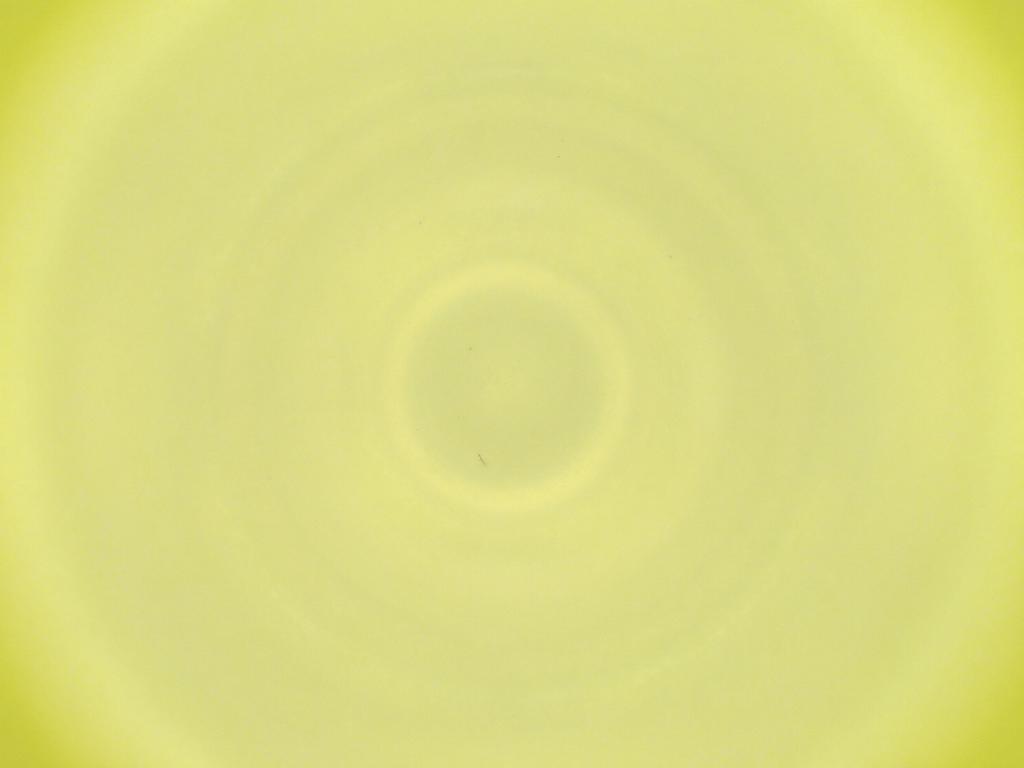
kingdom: Animalia
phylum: Arthropoda
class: Insecta
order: Diptera
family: Cecidomyiidae
